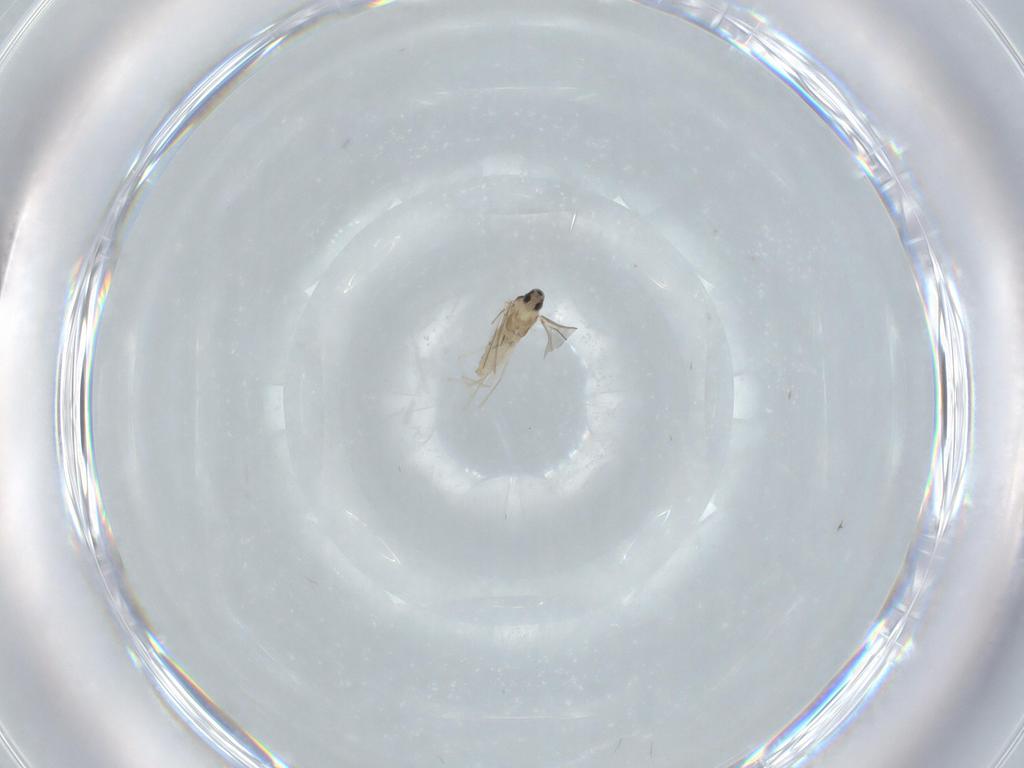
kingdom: Animalia
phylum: Arthropoda
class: Insecta
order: Diptera
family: Cecidomyiidae
